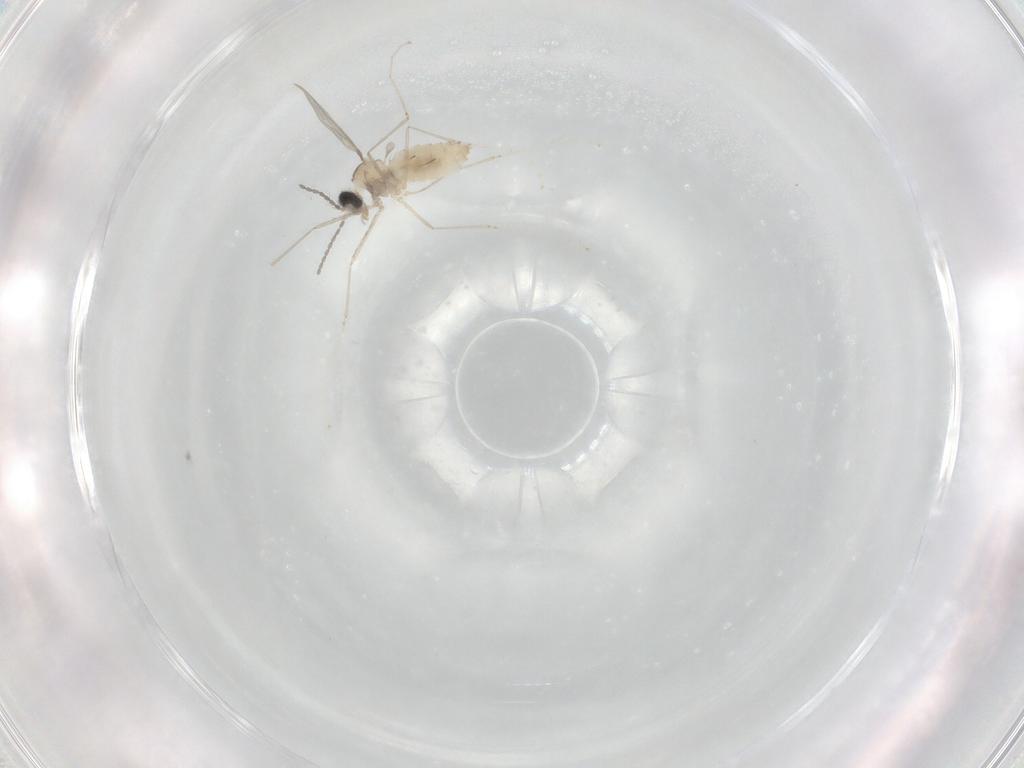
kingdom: Animalia
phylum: Arthropoda
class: Insecta
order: Diptera
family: Cecidomyiidae
